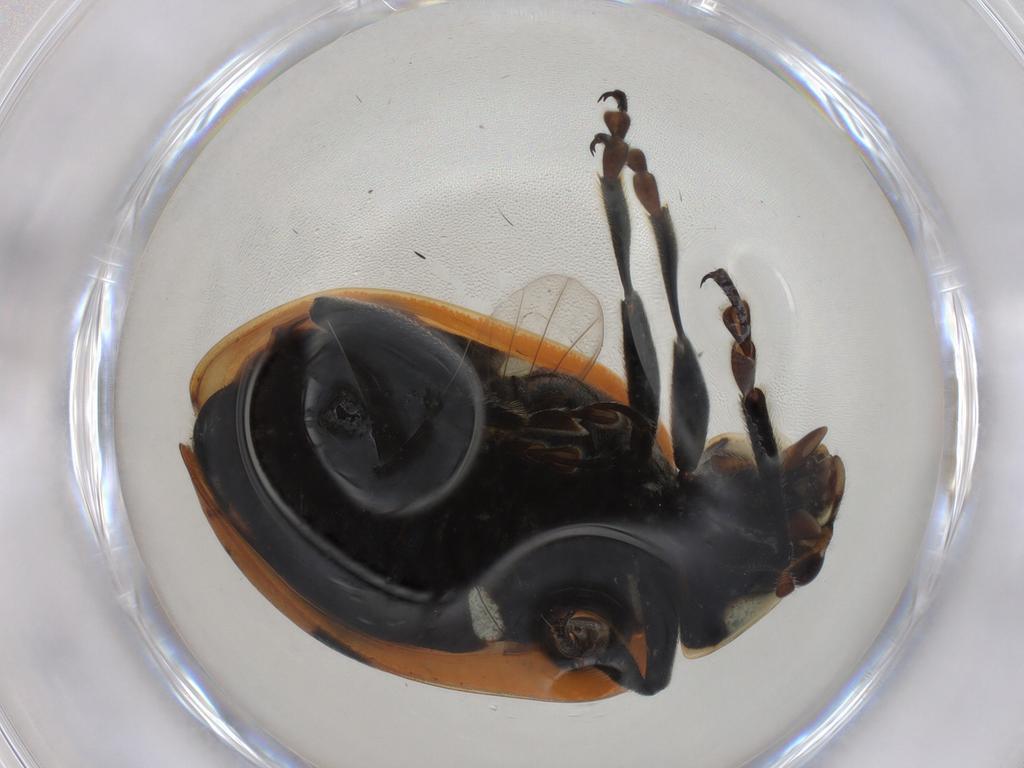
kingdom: Animalia
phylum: Arthropoda
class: Insecta
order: Coleoptera
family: Coccinellidae
